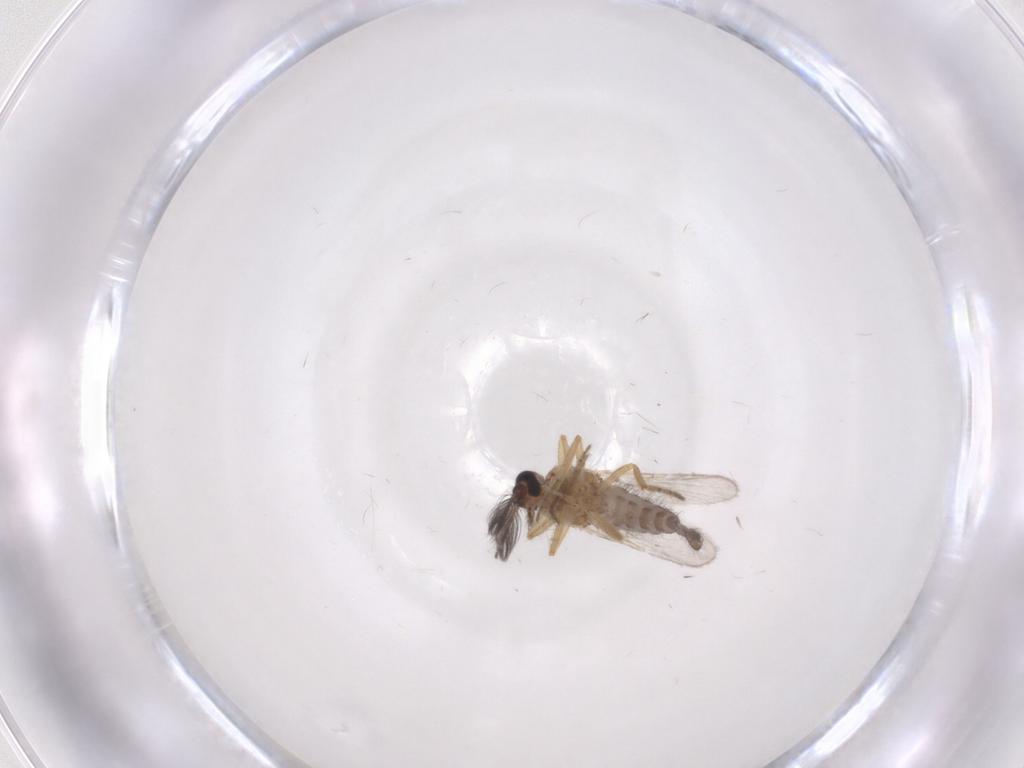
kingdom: Animalia
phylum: Arthropoda
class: Insecta
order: Diptera
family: Ceratopogonidae
